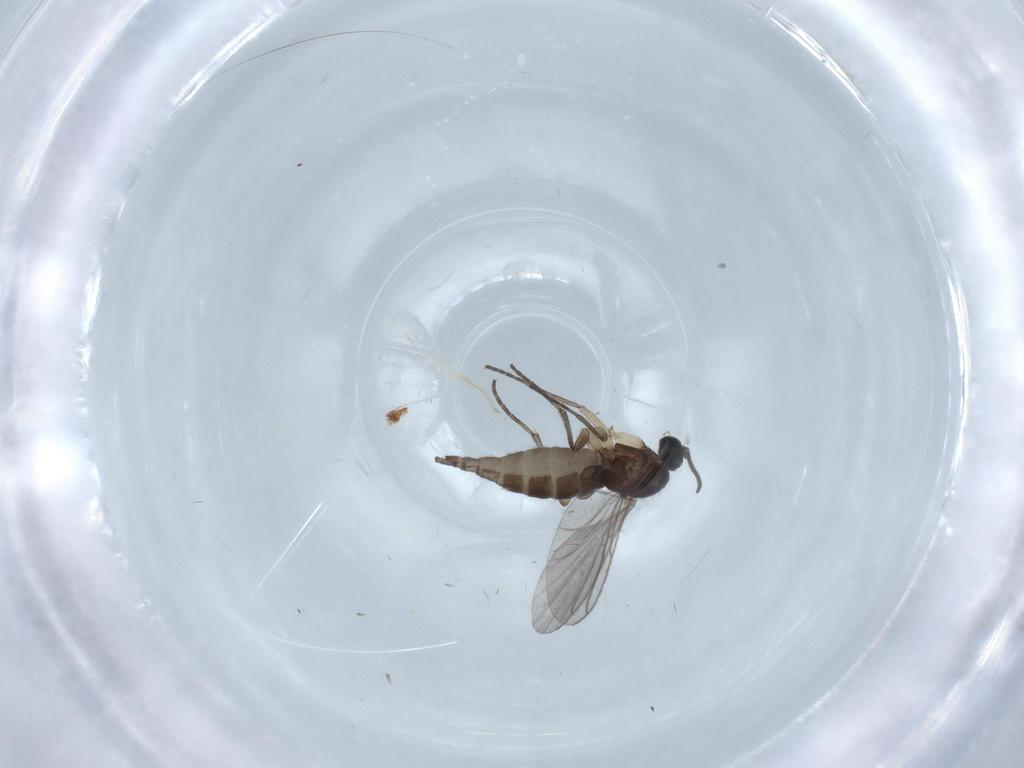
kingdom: Animalia
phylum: Arthropoda
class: Insecta
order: Diptera
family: Sciaridae
